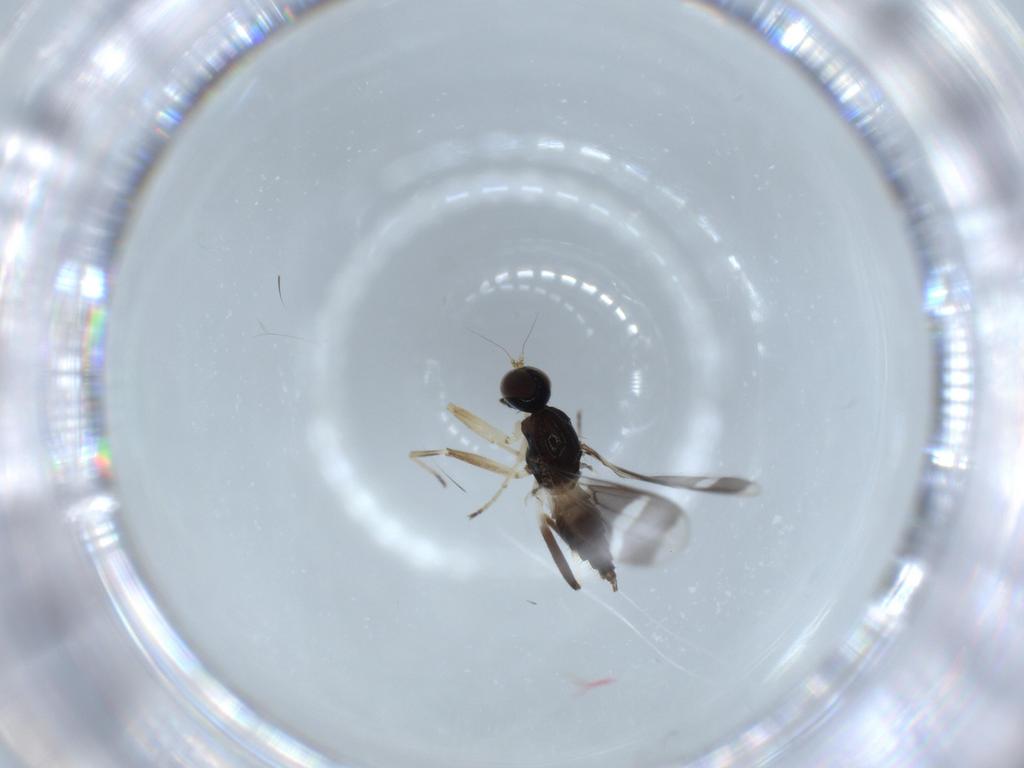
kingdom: Animalia
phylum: Arthropoda
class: Insecta
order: Diptera
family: Hybotidae
